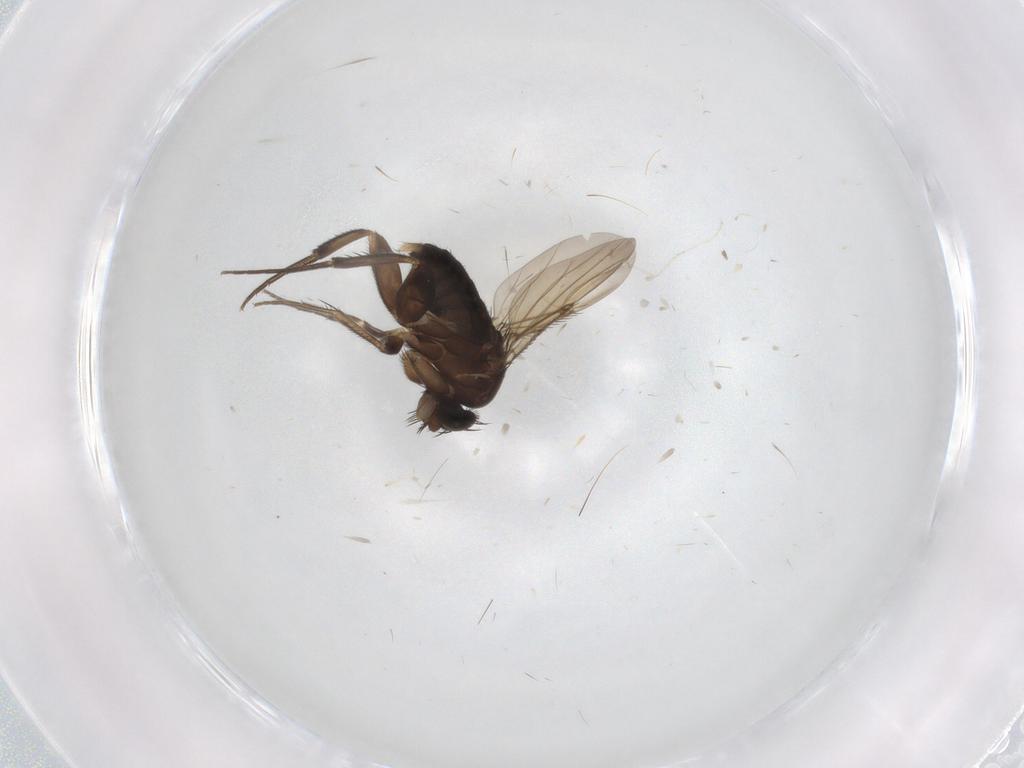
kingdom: Animalia
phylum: Arthropoda
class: Insecta
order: Diptera
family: Phoridae
